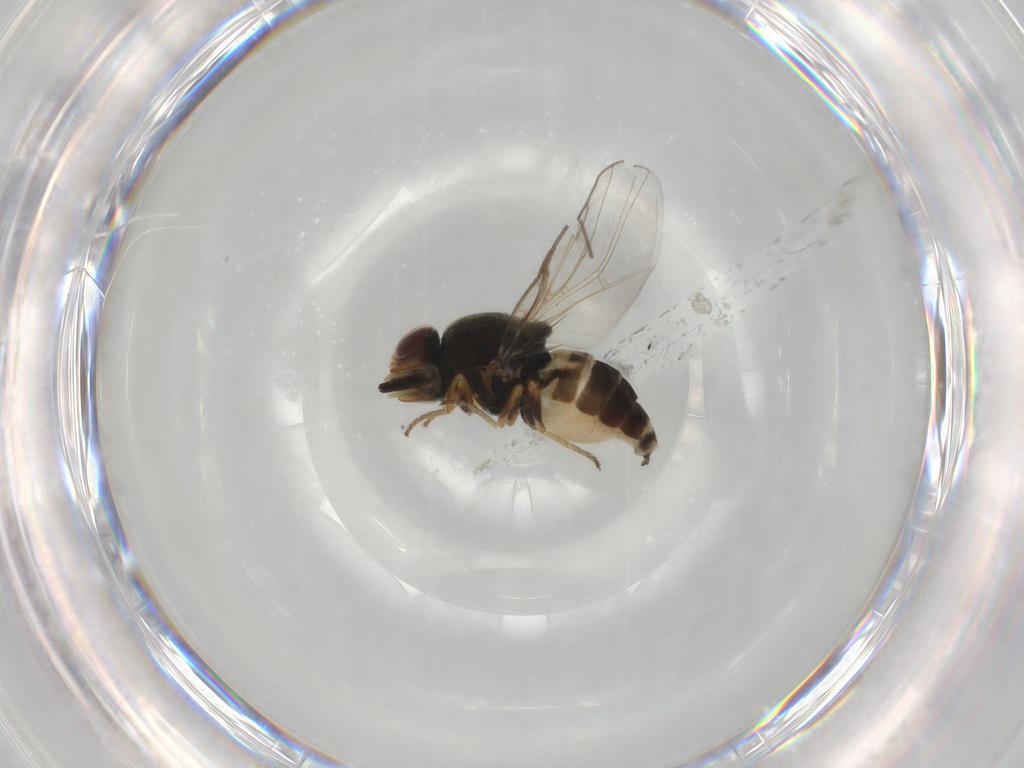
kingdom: Animalia
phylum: Arthropoda
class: Insecta
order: Diptera
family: Chloropidae
